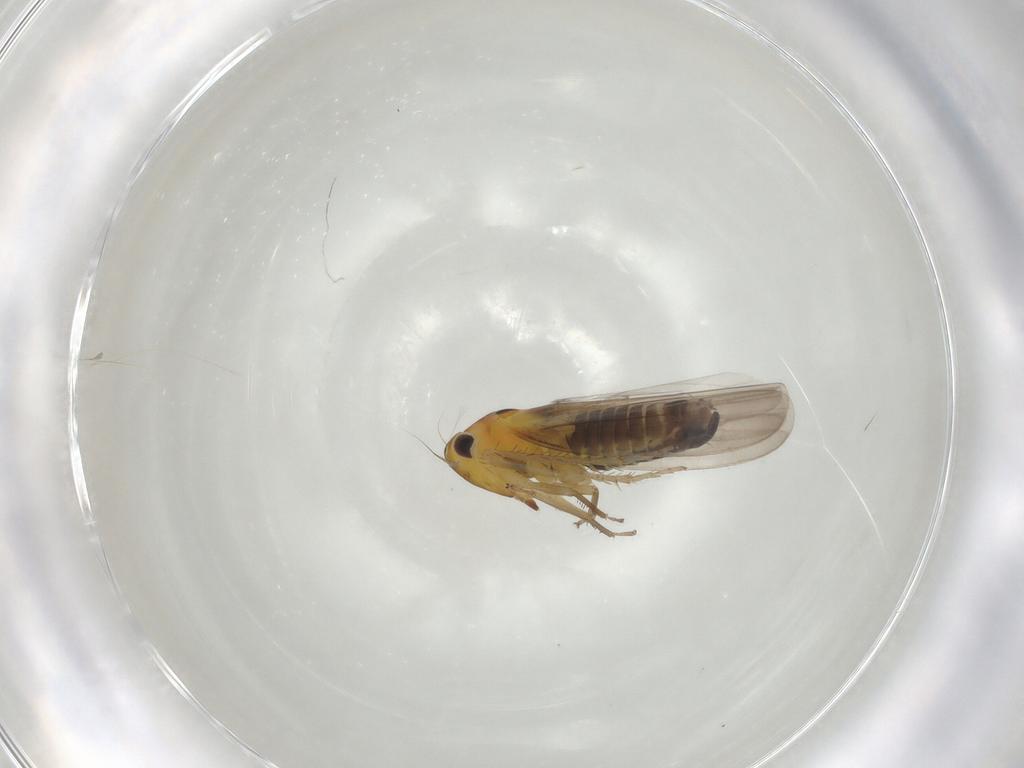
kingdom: Animalia
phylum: Arthropoda
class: Insecta
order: Hemiptera
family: Cicadellidae
